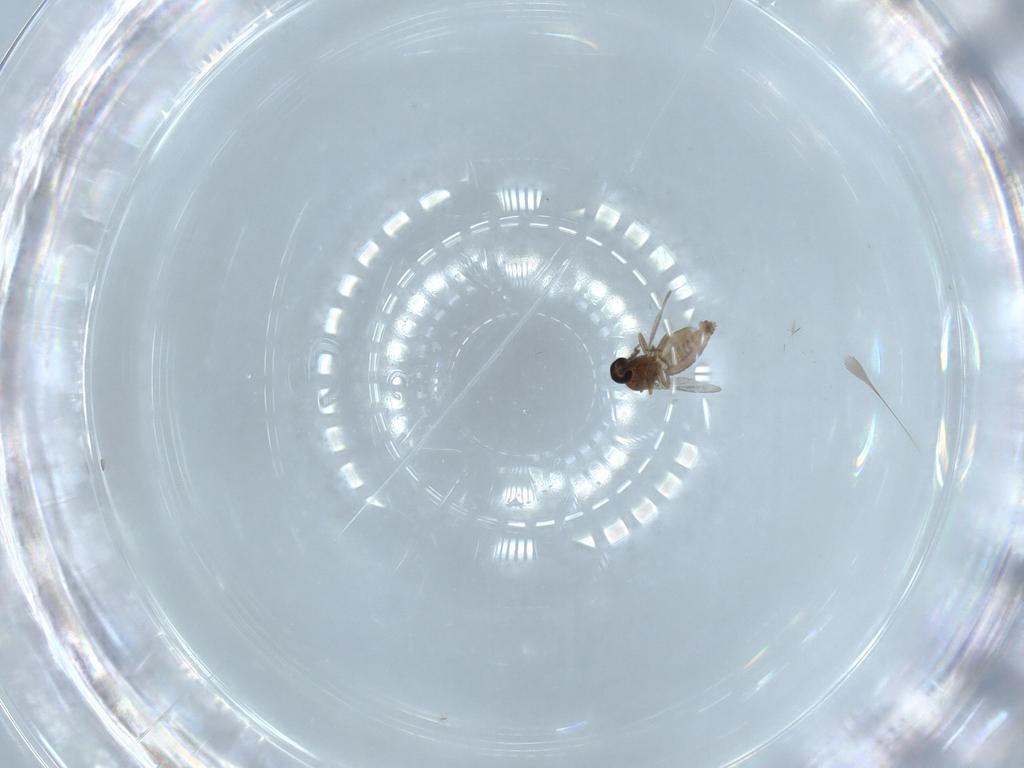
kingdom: Animalia
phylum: Arthropoda
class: Insecta
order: Diptera
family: Ceratopogonidae
